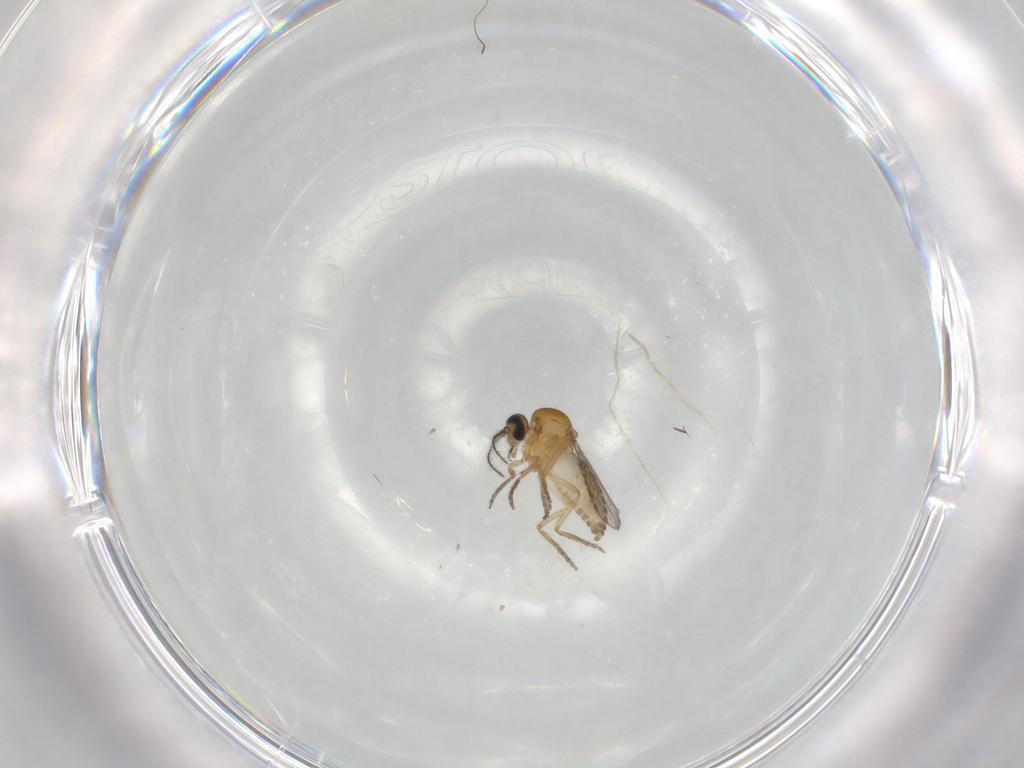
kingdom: Animalia
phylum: Arthropoda
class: Insecta
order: Diptera
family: Ceratopogonidae
